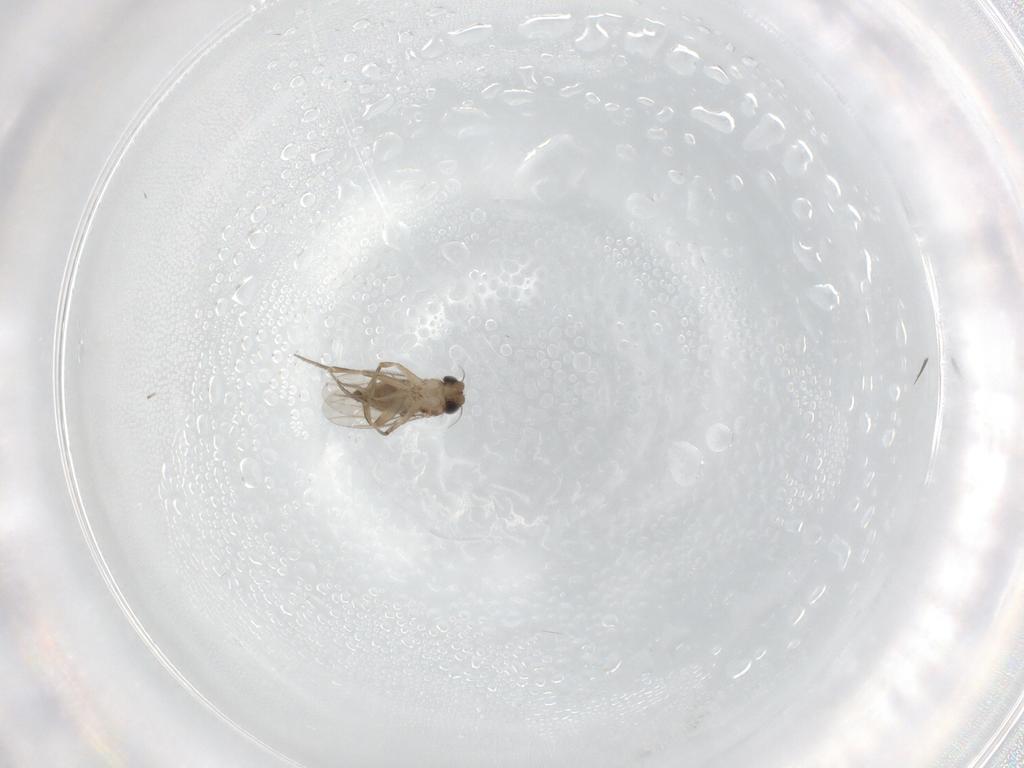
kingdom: Animalia
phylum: Arthropoda
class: Insecta
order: Diptera
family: Phoridae
